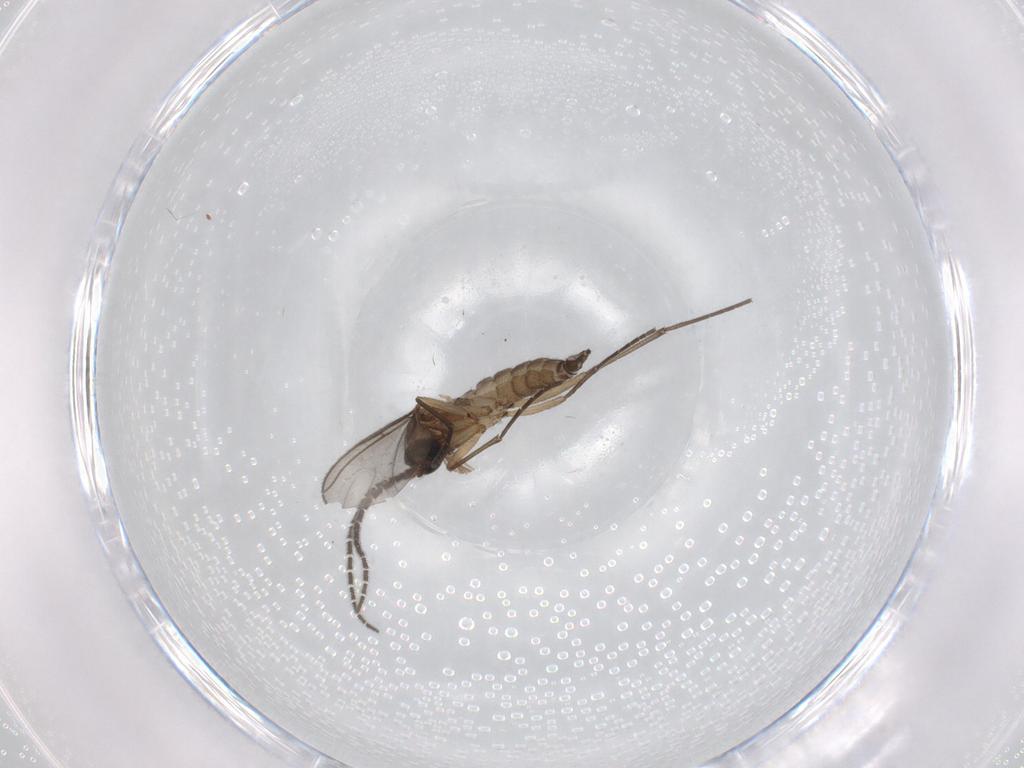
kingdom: Animalia
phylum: Arthropoda
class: Insecta
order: Diptera
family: Sciaridae
